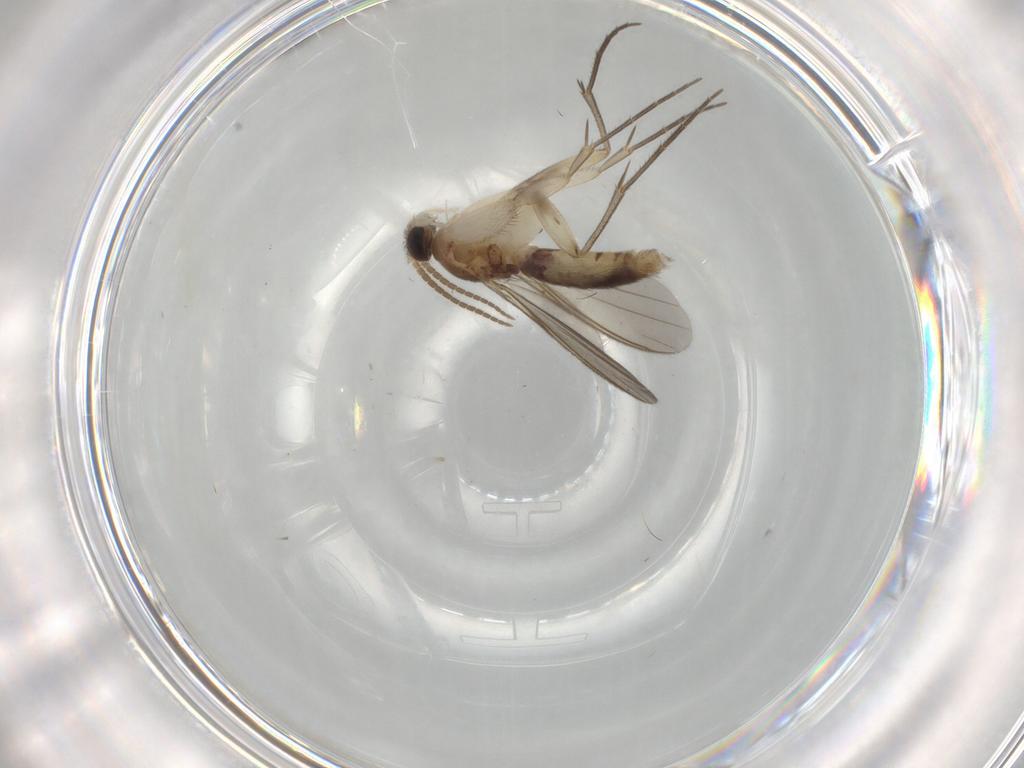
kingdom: Animalia
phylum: Arthropoda
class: Insecta
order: Diptera
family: Mycetophilidae
